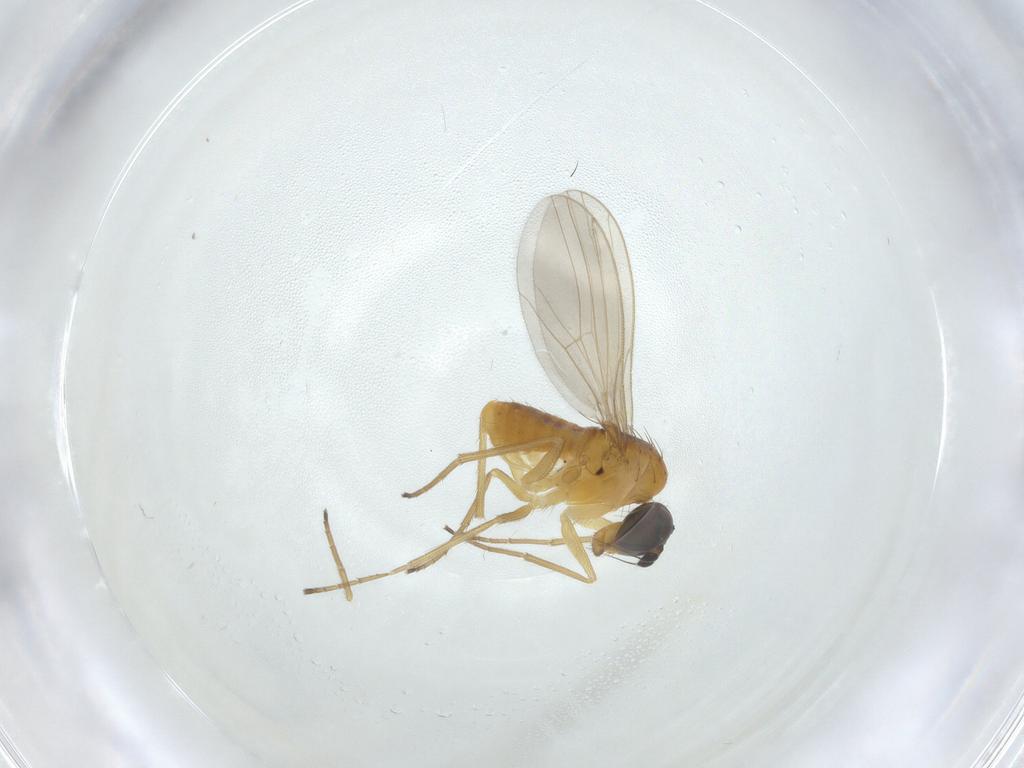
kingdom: Animalia
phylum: Arthropoda
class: Insecta
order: Diptera
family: Dolichopodidae
